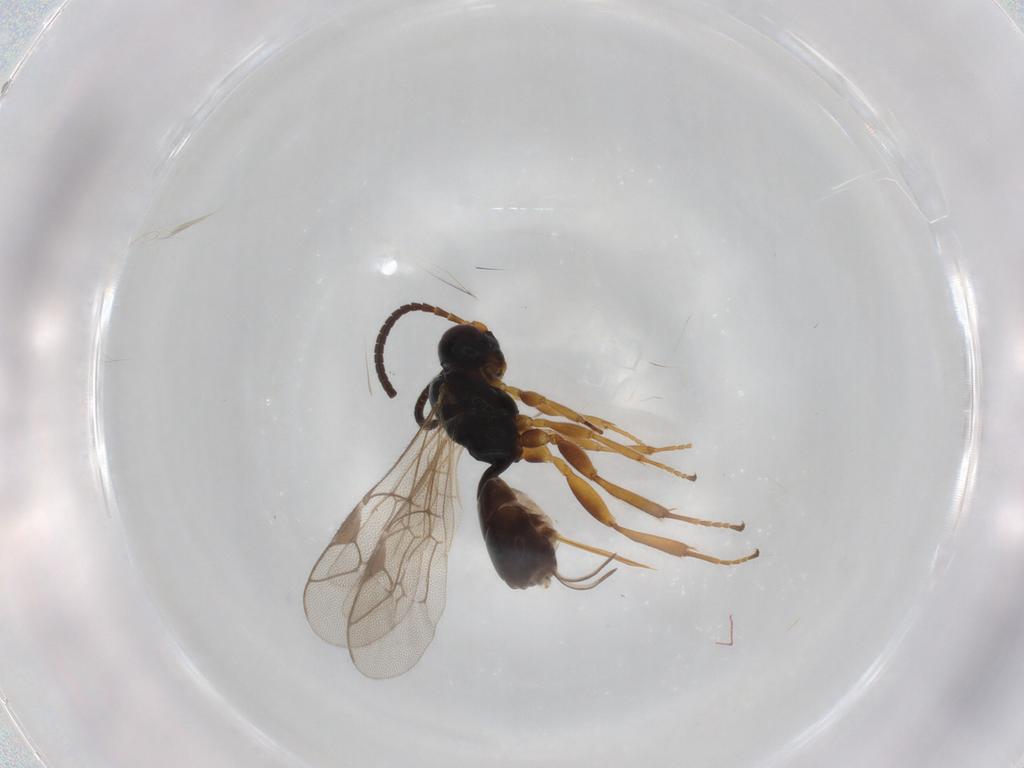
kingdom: Animalia
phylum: Arthropoda
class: Insecta
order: Hymenoptera
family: Ichneumonidae
